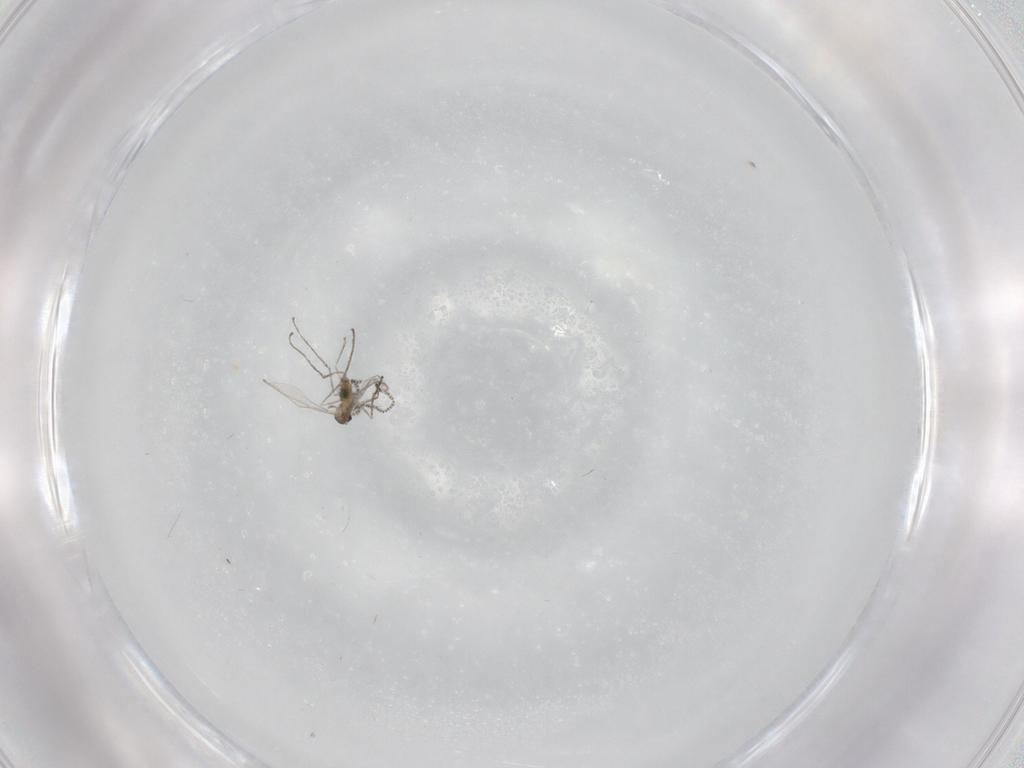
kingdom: Animalia
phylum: Arthropoda
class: Insecta
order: Diptera
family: Cecidomyiidae
